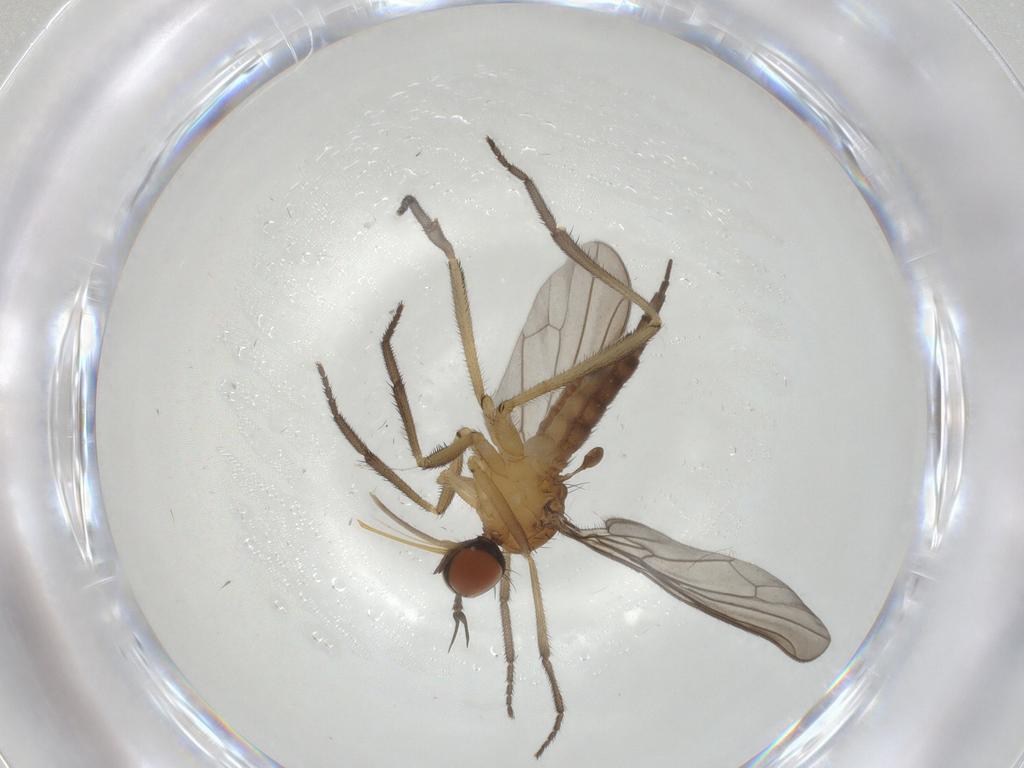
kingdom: Animalia
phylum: Arthropoda
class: Insecta
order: Diptera
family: Empididae
